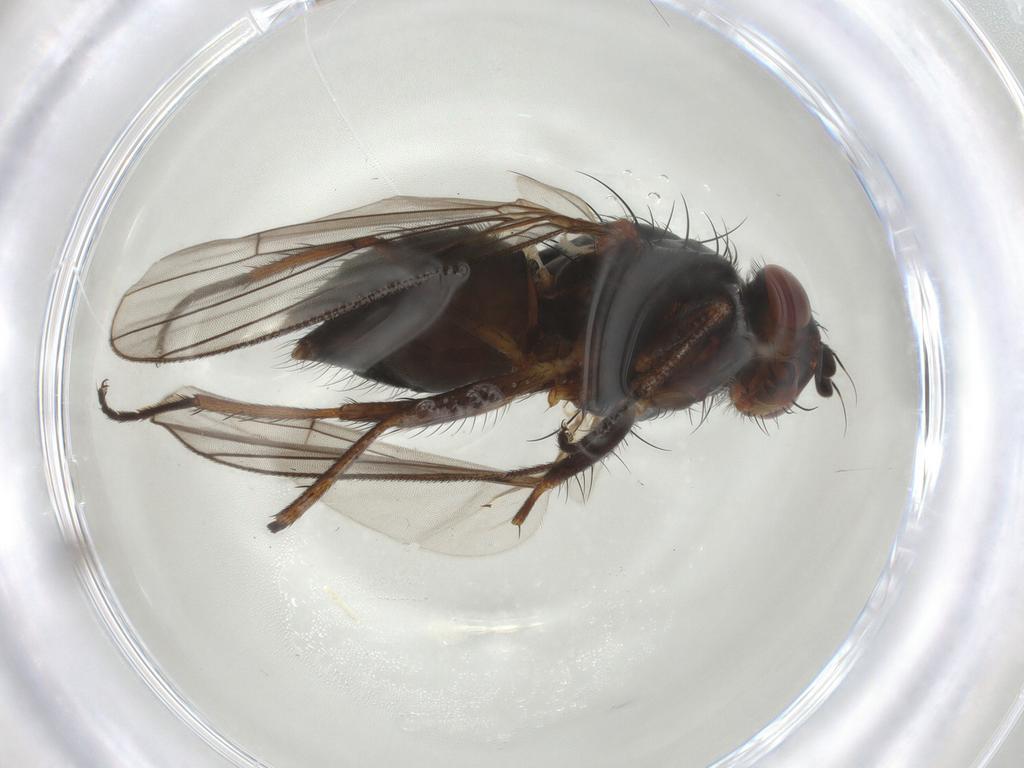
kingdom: Animalia
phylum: Arthropoda
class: Insecta
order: Diptera
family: Anthomyiidae
